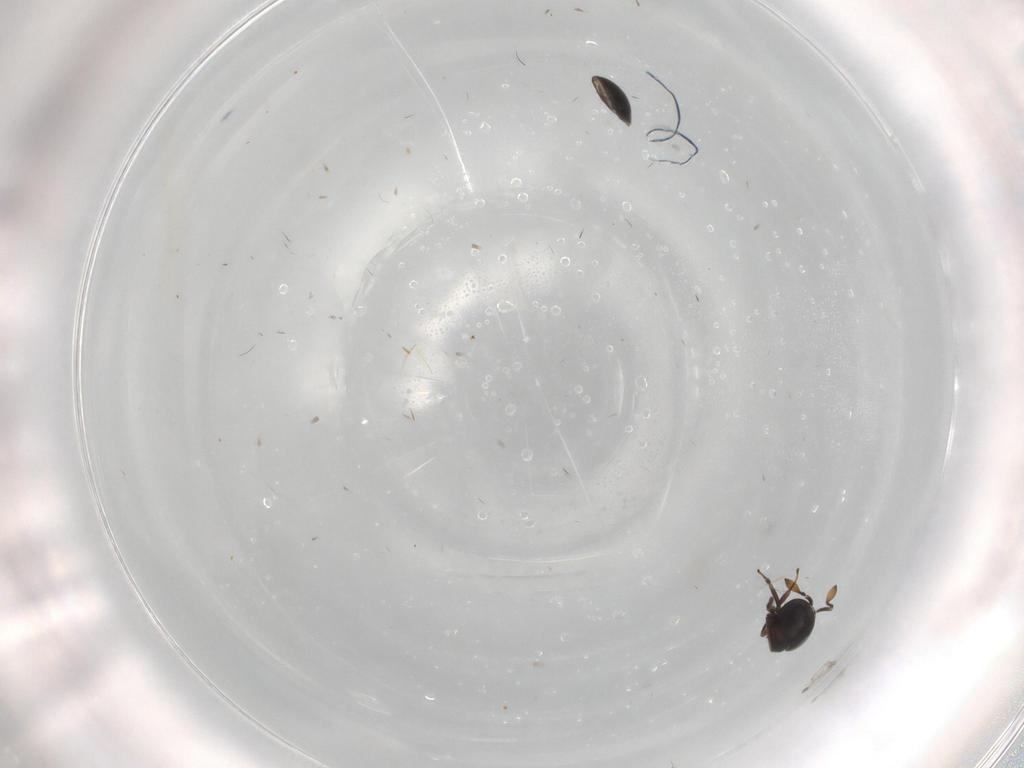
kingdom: Animalia
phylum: Arthropoda
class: Insecta
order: Hymenoptera
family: Scelionidae
